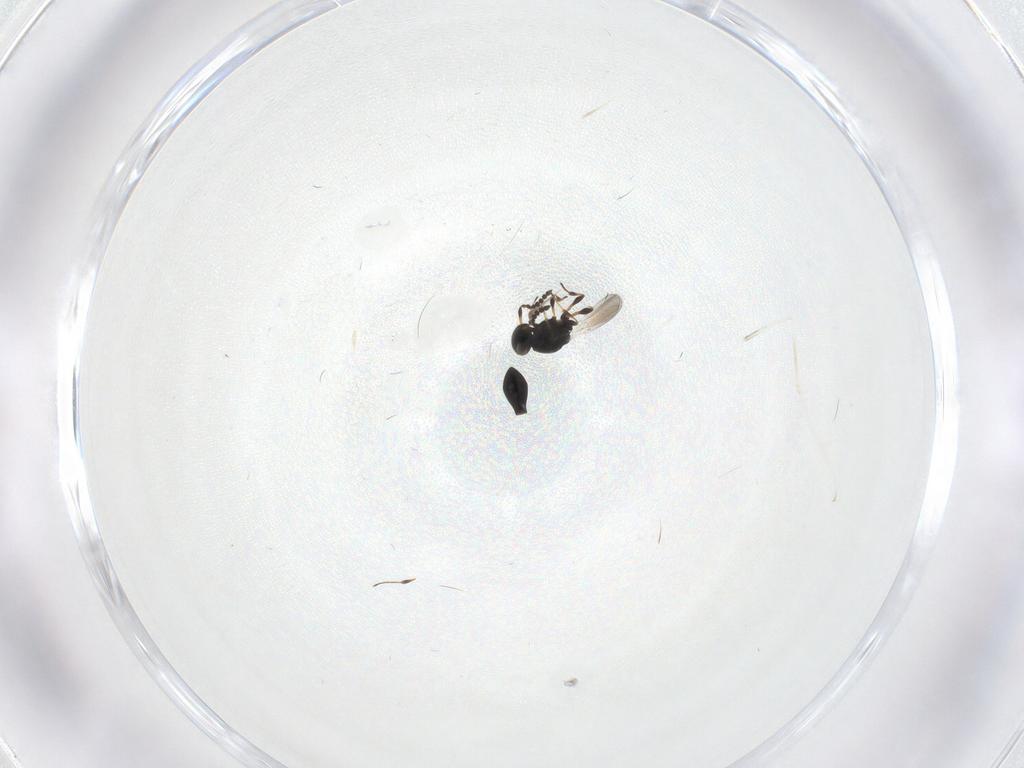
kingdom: Animalia
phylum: Arthropoda
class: Insecta
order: Hymenoptera
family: Platygastridae
